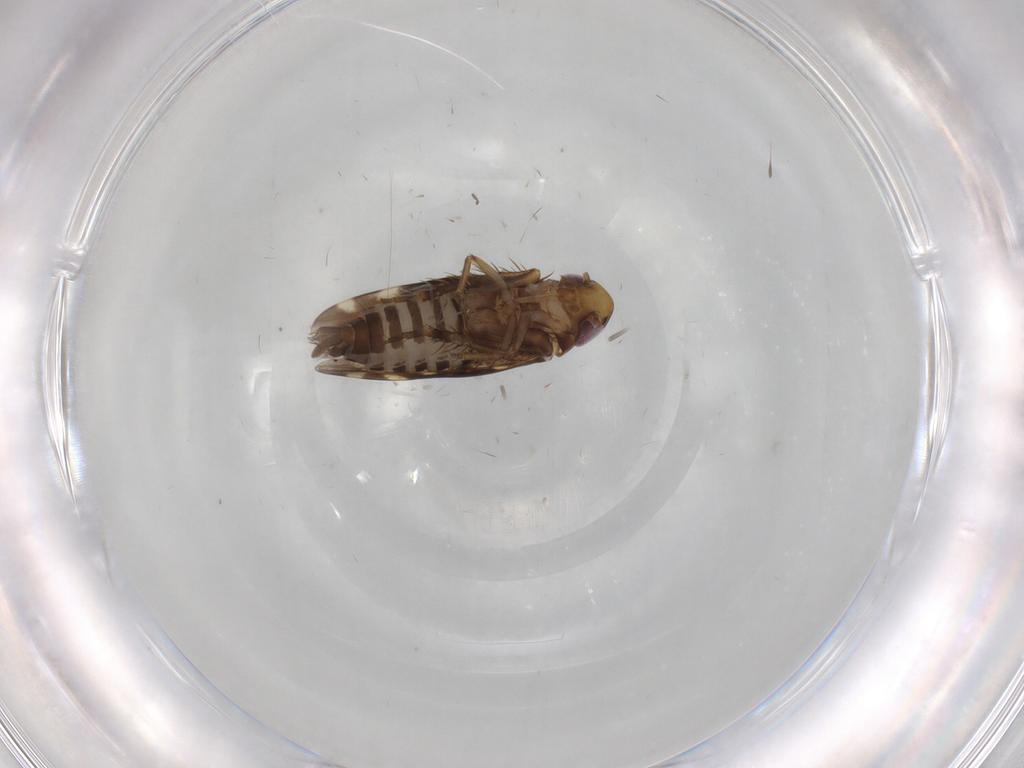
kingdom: Animalia
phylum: Arthropoda
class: Insecta
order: Hemiptera
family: Cicadellidae
